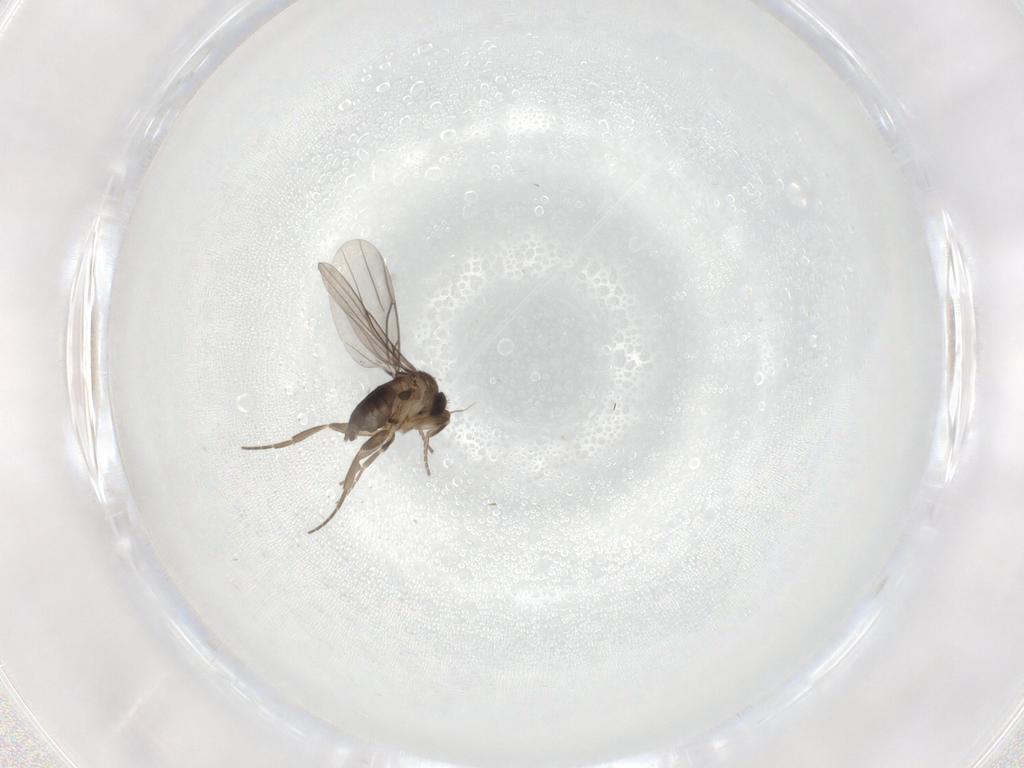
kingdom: Animalia
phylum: Arthropoda
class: Insecta
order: Diptera
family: Phoridae
